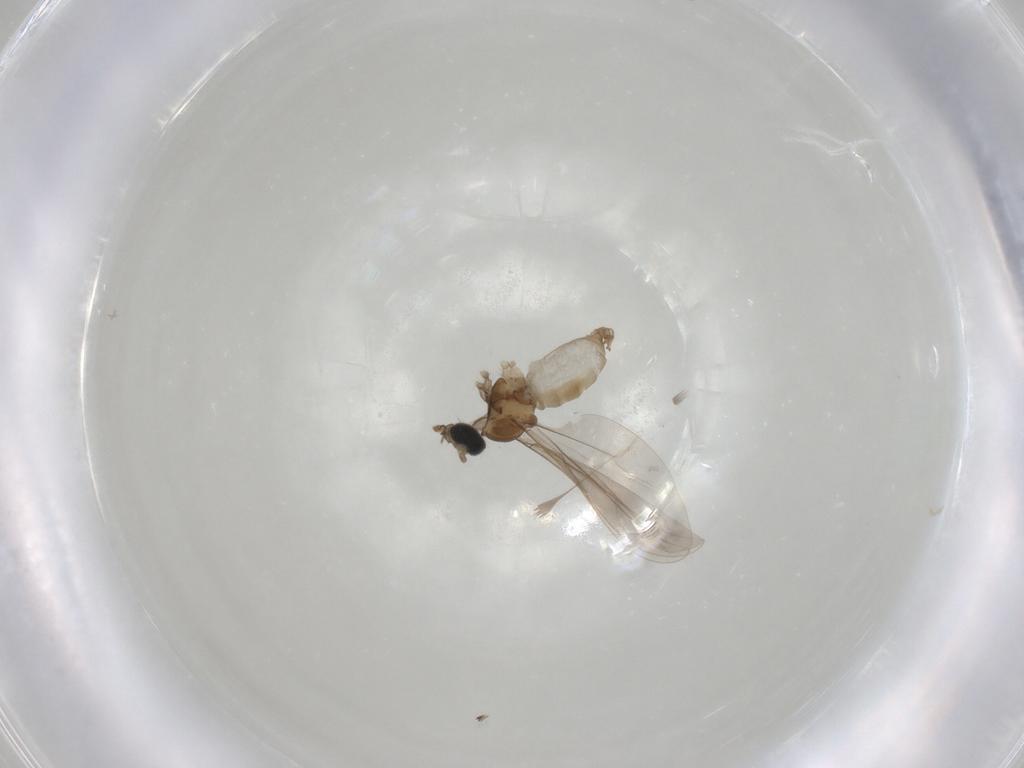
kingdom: Animalia
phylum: Arthropoda
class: Insecta
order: Diptera
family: Cecidomyiidae
